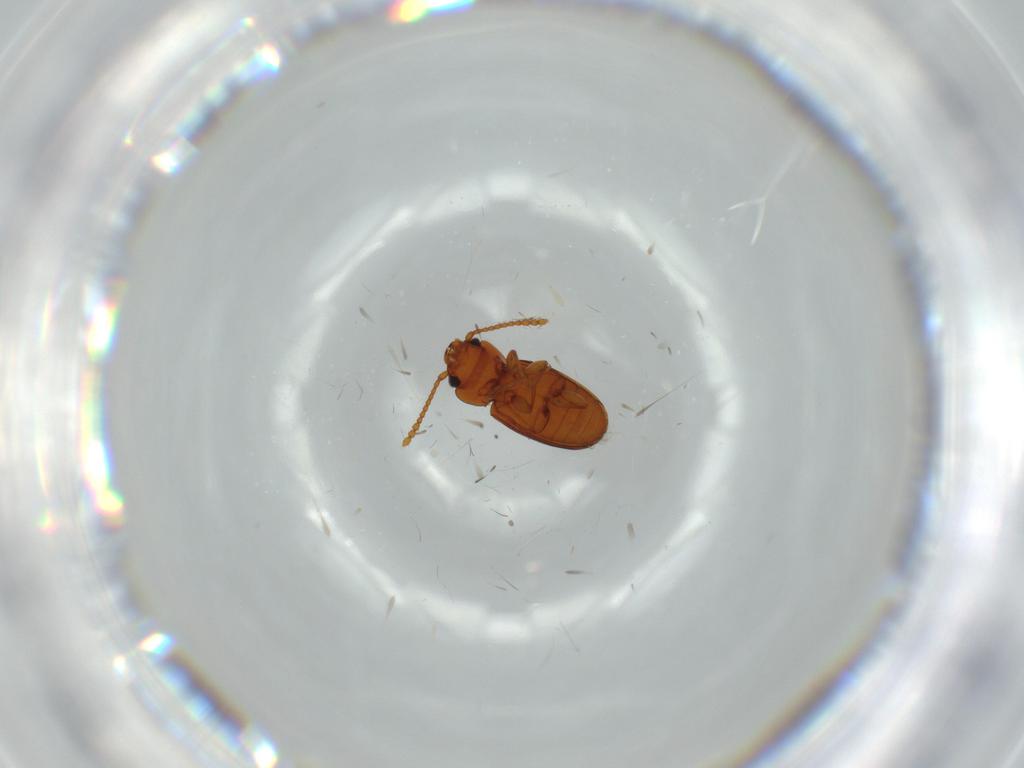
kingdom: Animalia
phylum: Arthropoda
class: Insecta
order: Coleoptera
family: Laemophloeidae
